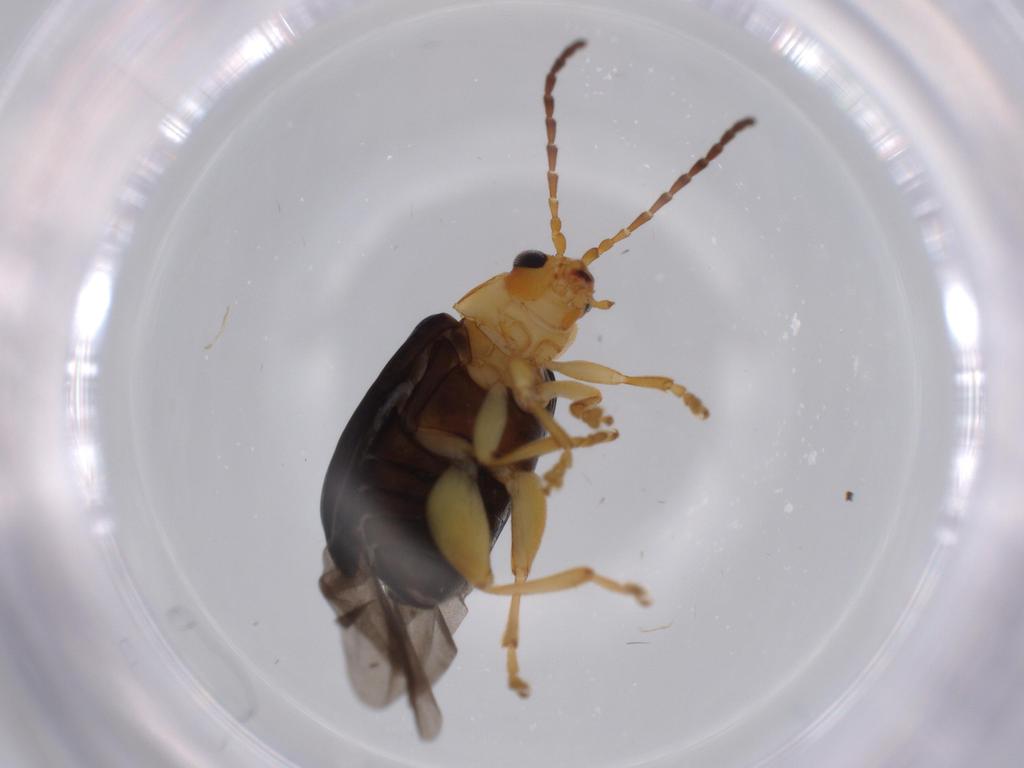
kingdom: Animalia
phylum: Arthropoda
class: Insecta
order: Coleoptera
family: Chrysomelidae
